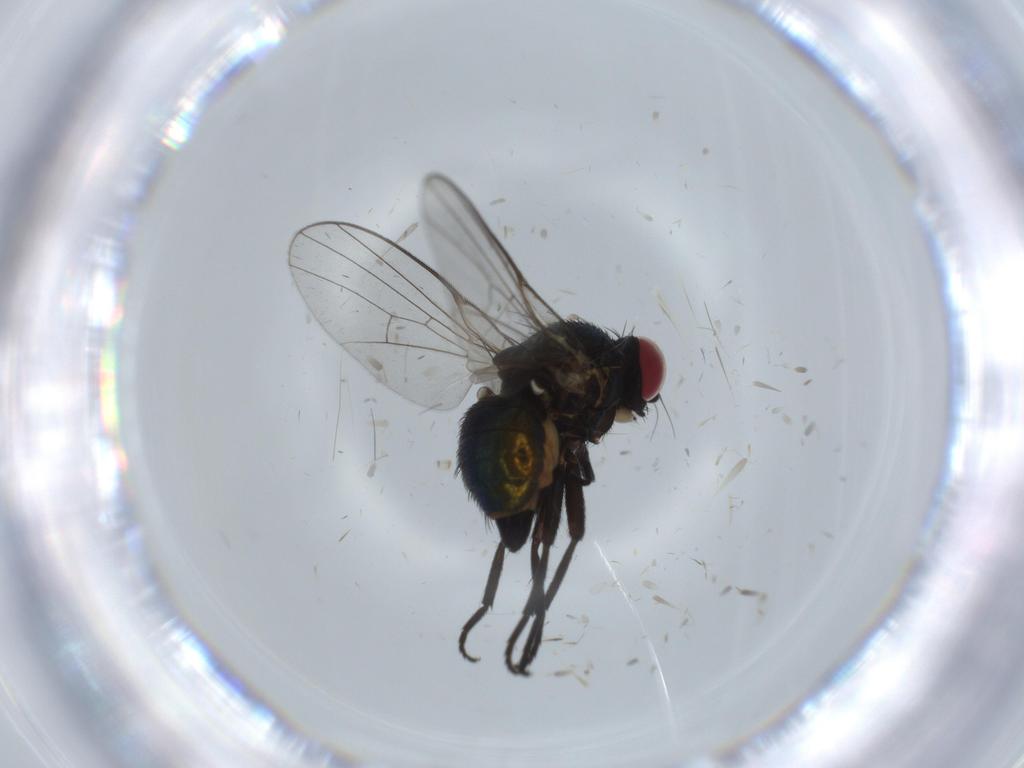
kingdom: Animalia
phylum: Arthropoda
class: Insecta
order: Diptera
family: Agromyzidae
